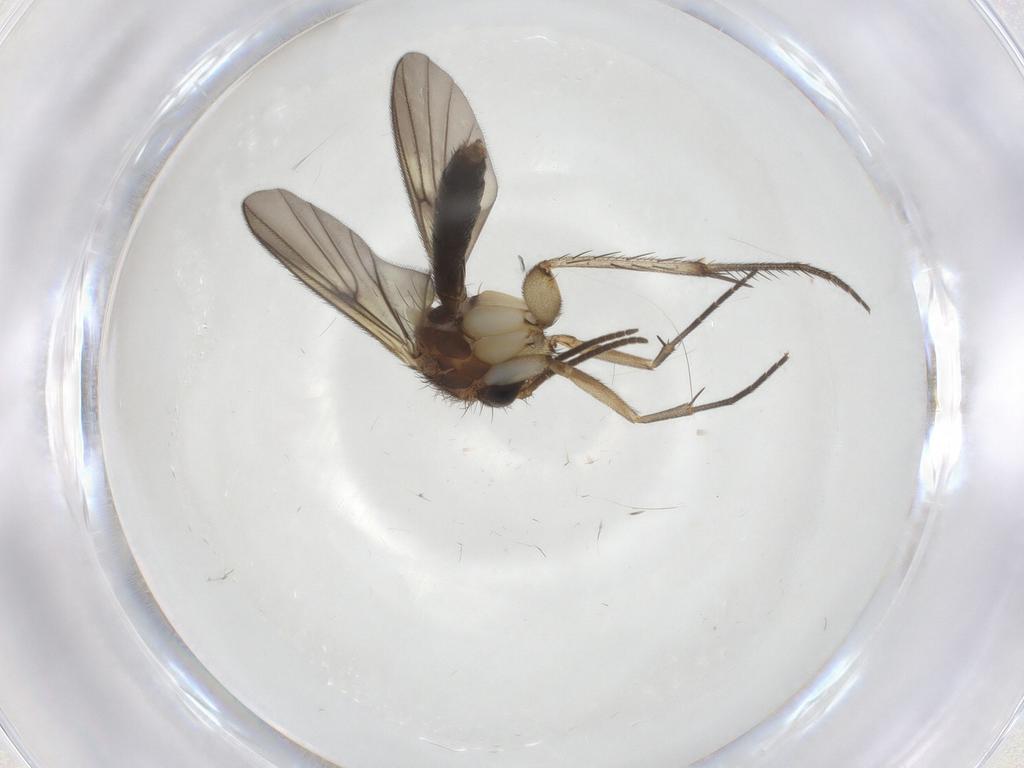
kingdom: Animalia
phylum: Arthropoda
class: Insecta
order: Diptera
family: Mycetophilidae
